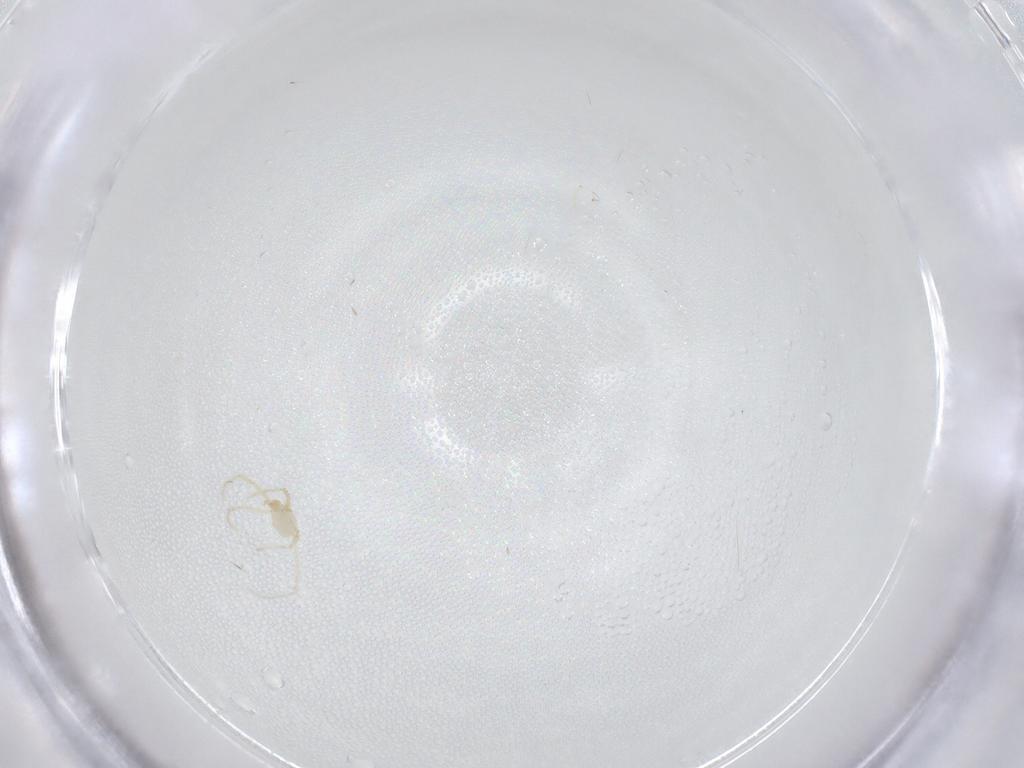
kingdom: Animalia
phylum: Arthropoda
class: Arachnida
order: Trombidiformes
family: Erythraeidae
